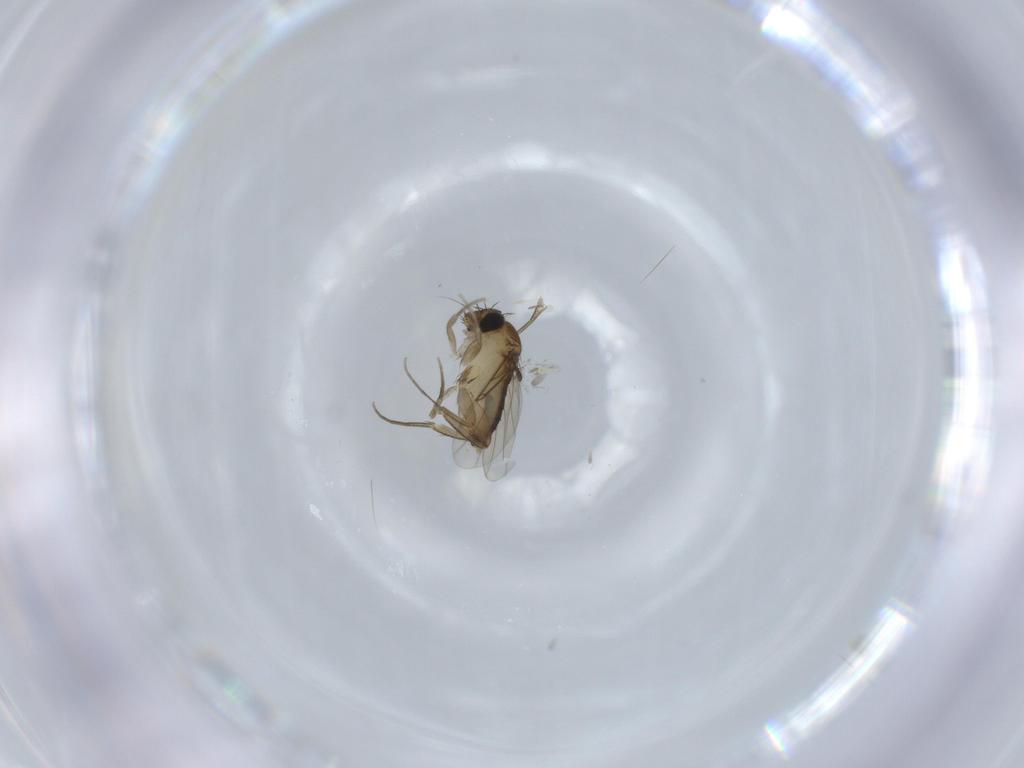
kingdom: Animalia
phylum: Arthropoda
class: Insecta
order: Diptera
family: Phoridae
